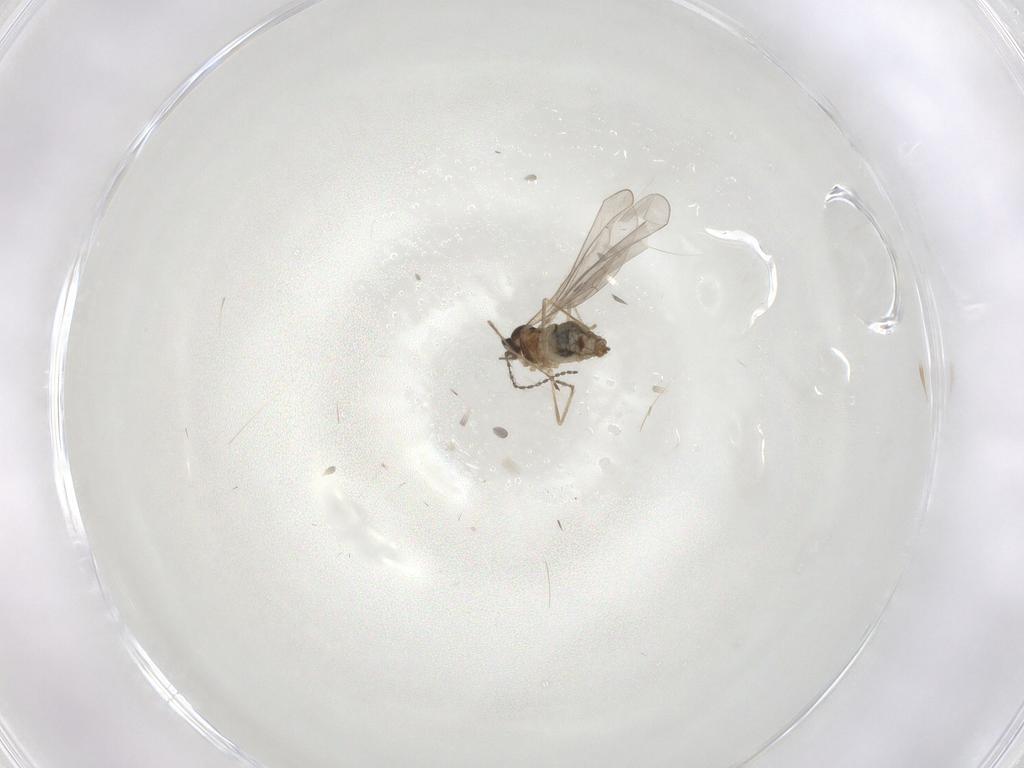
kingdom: Animalia
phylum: Arthropoda
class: Insecta
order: Diptera
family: Cecidomyiidae
